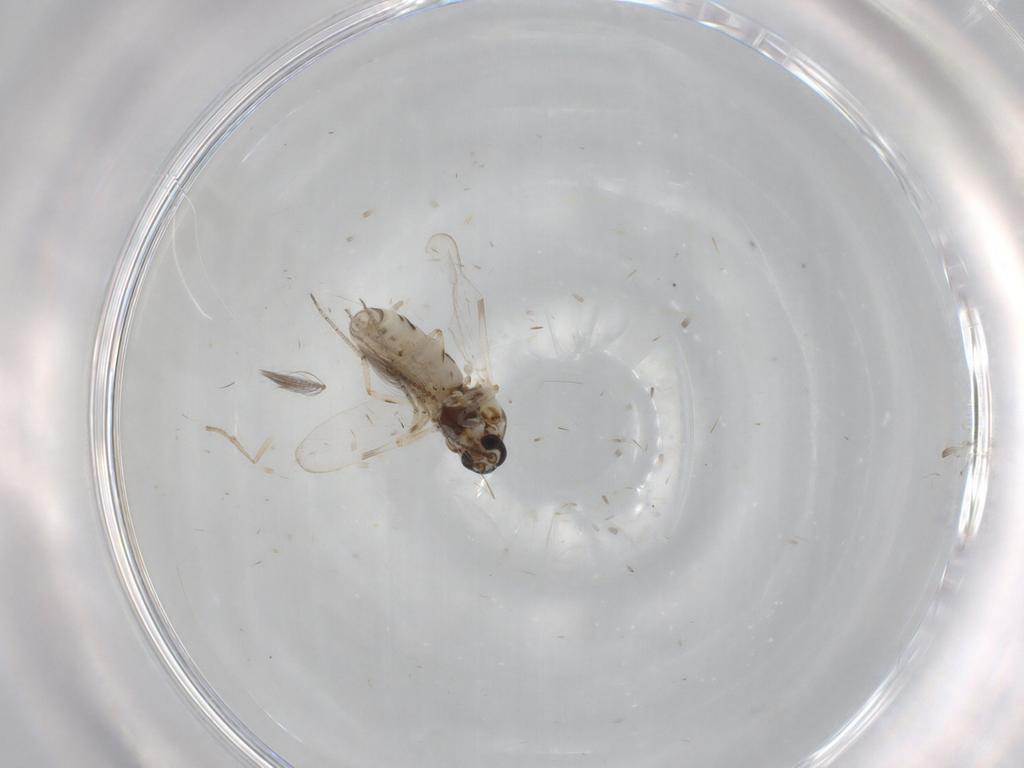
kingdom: Animalia
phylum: Arthropoda
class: Insecta
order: Diptera
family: Ceratopogonidae
